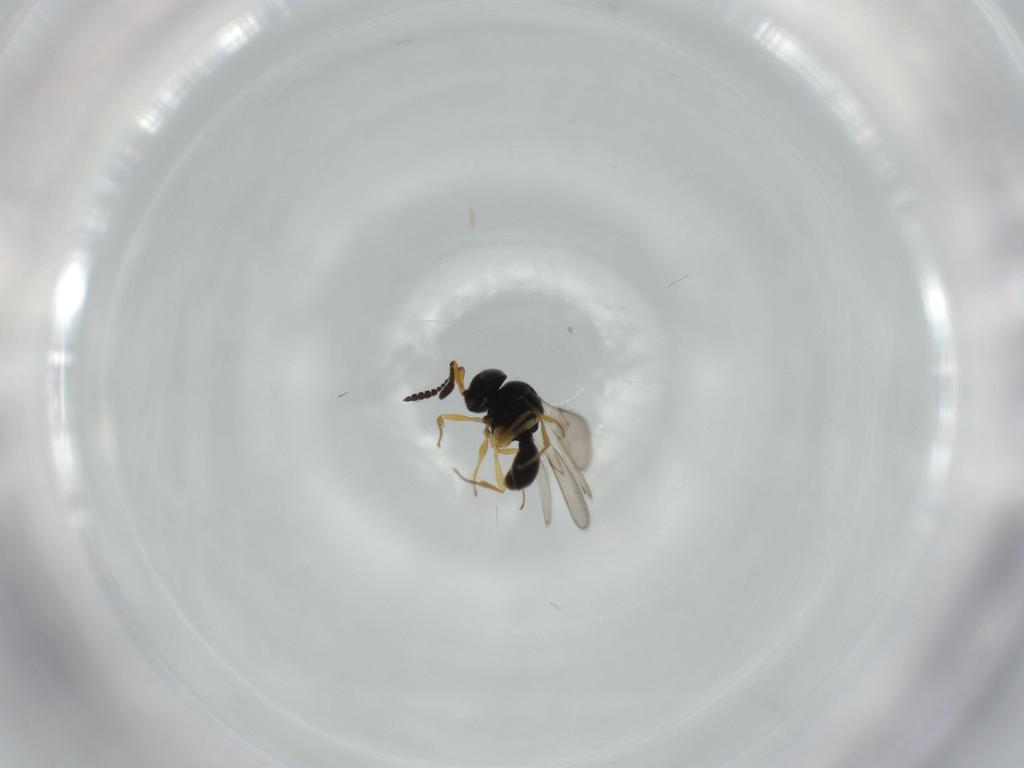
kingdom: Animalia
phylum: Arthropoda
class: Insecta
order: Hymenoptera
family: Scelionidae
